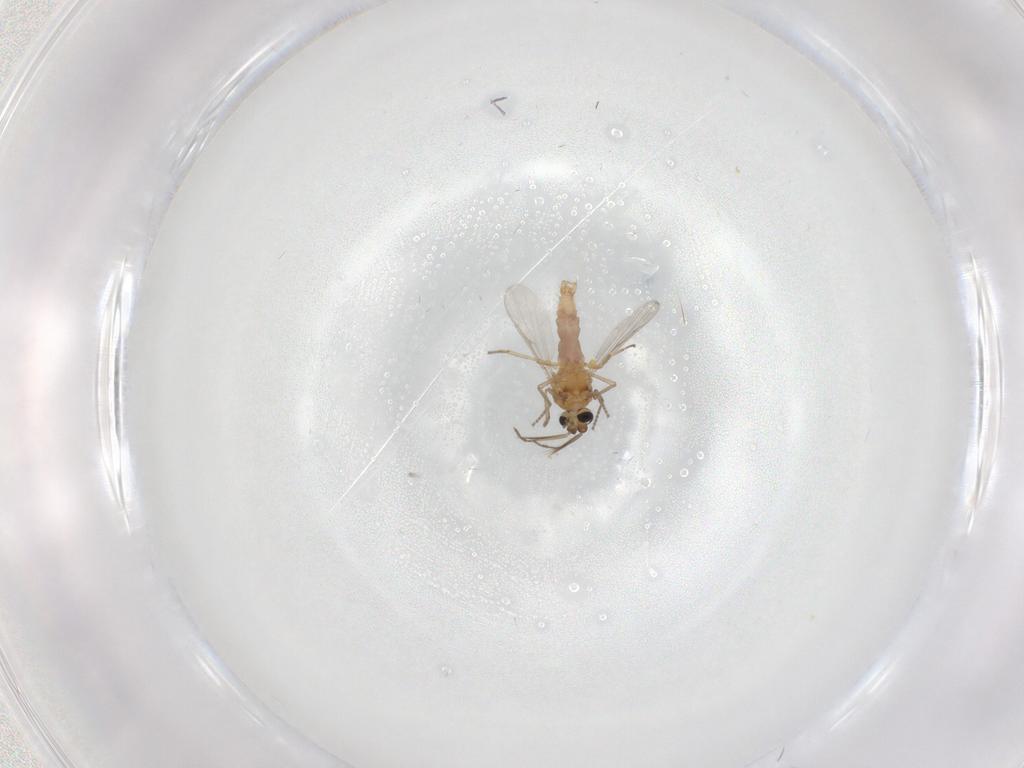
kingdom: Animalia
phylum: Arthropoda
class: Insecta
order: Diptera
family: Ceratopogonidae
